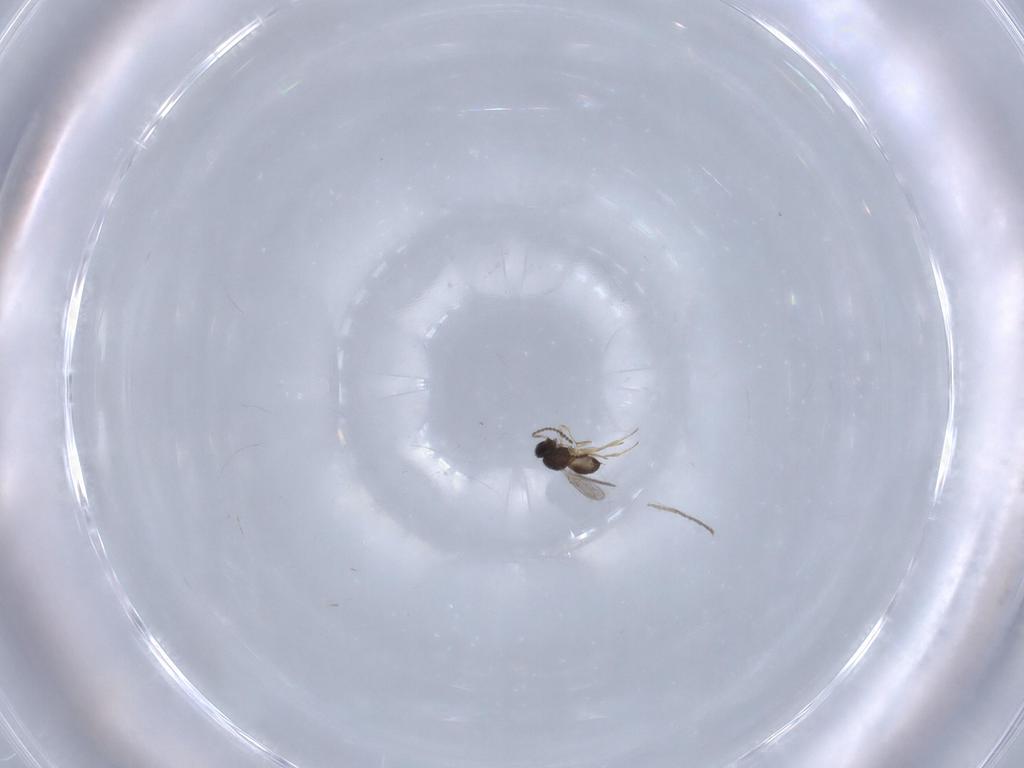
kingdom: Animalia
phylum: Arthropoda
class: Insecta
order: Hymenoptera
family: Scelionidae
